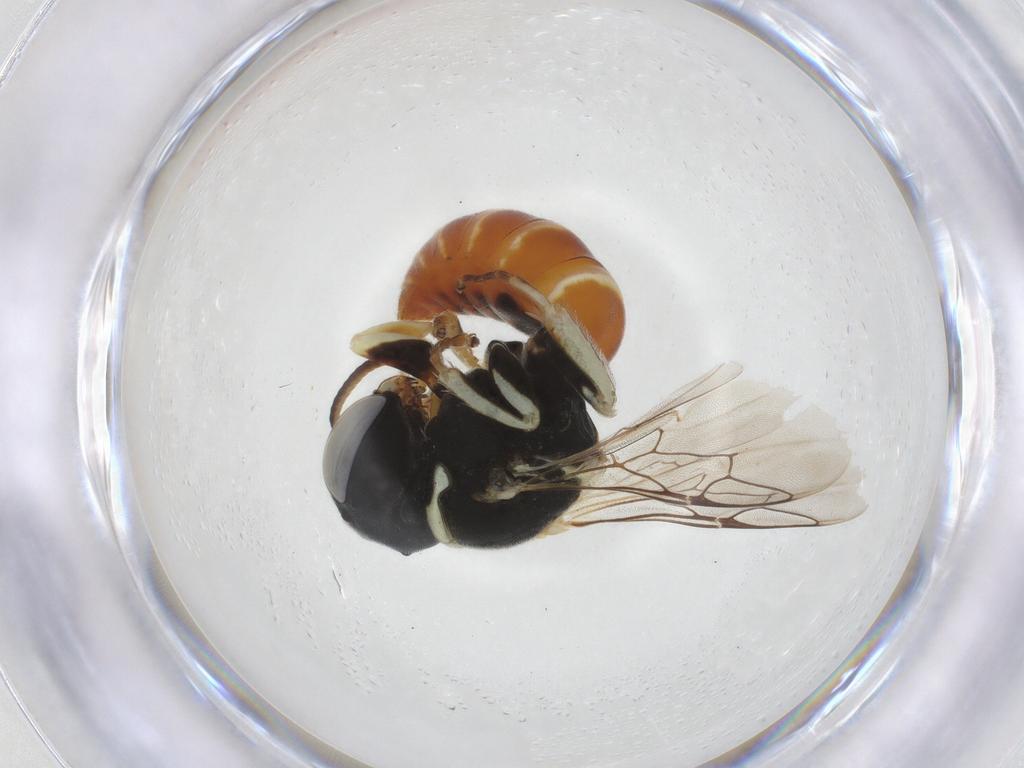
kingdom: Animalia
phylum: Arthropoda
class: Insecta
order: Hymenoptera
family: Crabronidae
